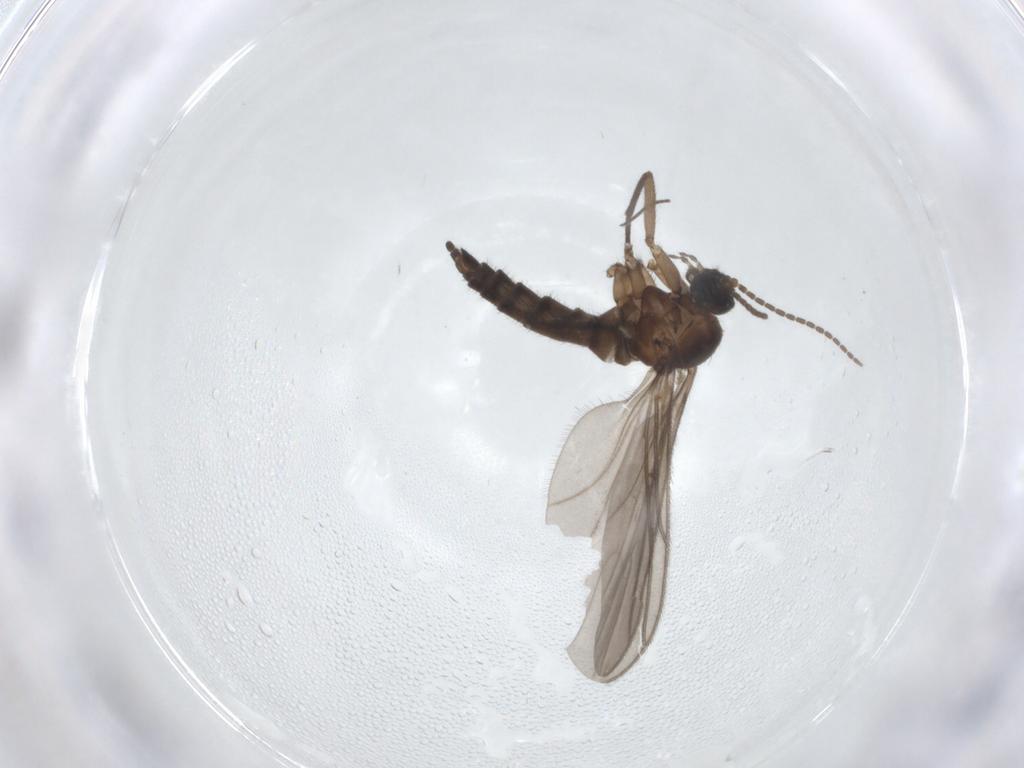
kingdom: Animalia
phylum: Arthropoda
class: Insecta
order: Diptera
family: Sciaridae
